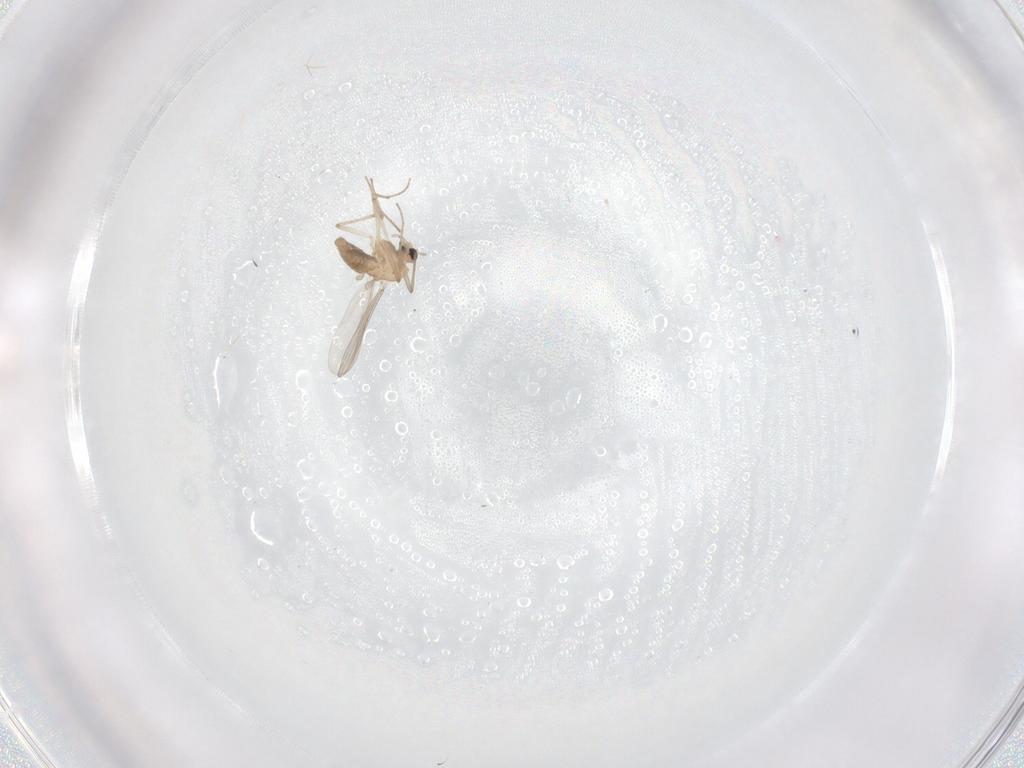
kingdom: Animalia
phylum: Arthropoda
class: Insecta
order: Diptera
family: Chironomidae
